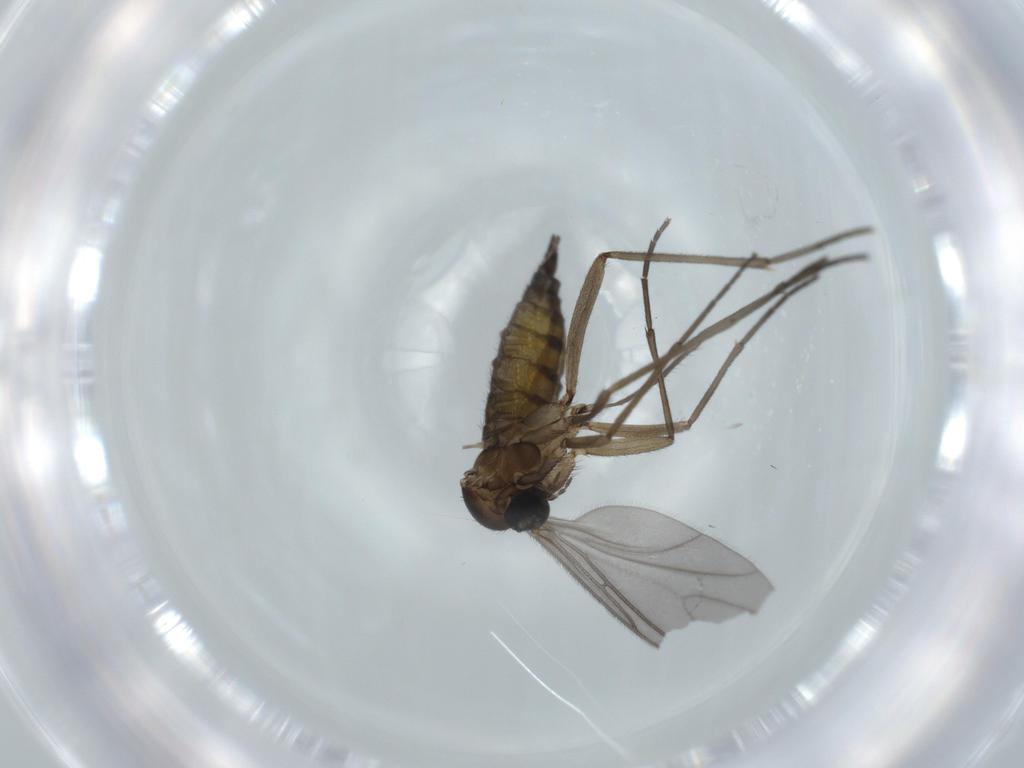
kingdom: Animalia
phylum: Arthropoda
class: Insecta
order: Diptera
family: Sciaridae
